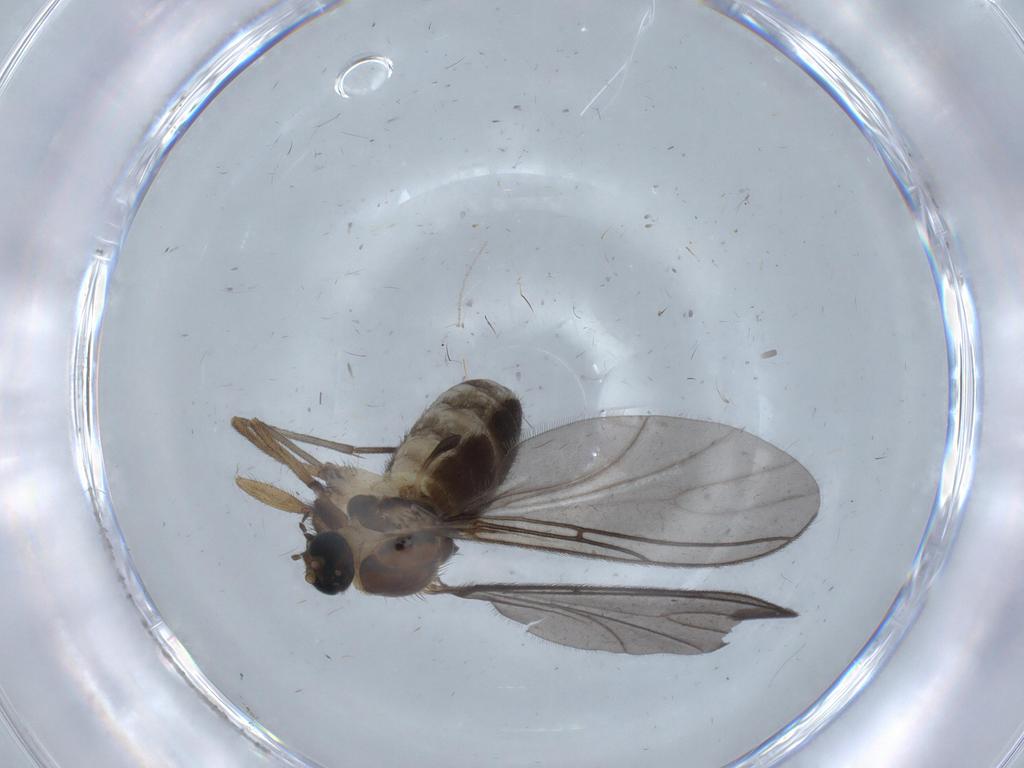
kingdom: Animalia
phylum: Arthropoda
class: Insecta
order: Diptera
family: Sciaridae
